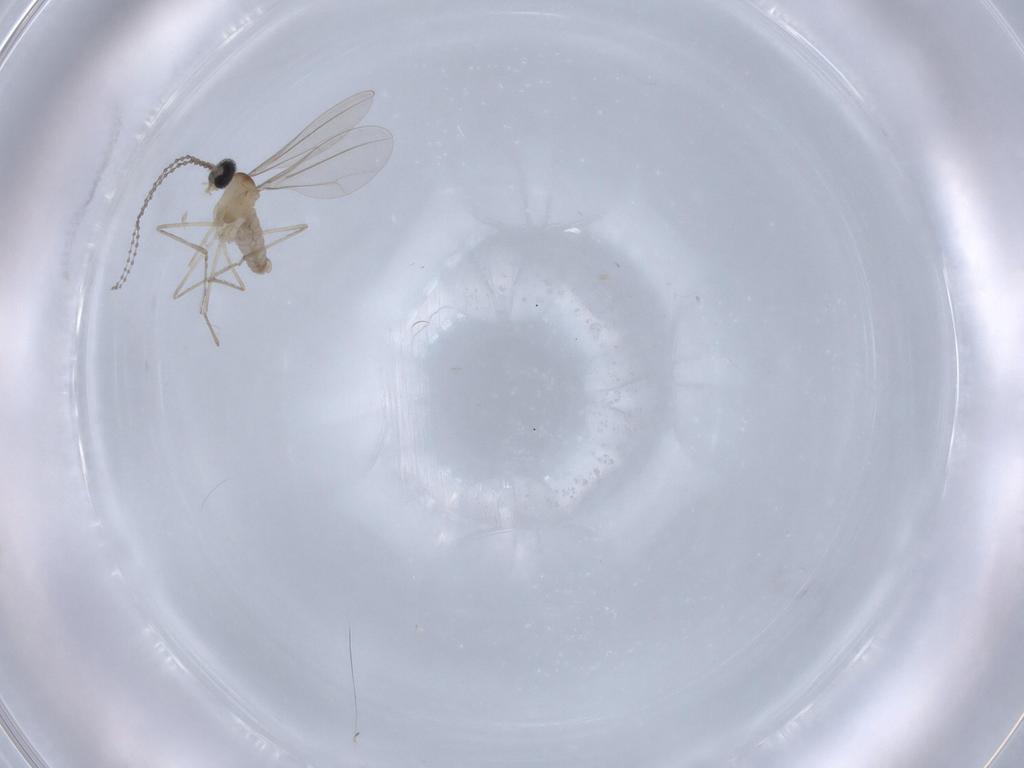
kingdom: Animalia
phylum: Arthropoda
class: Insecta
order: Diptera
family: Cecidomyiidae
